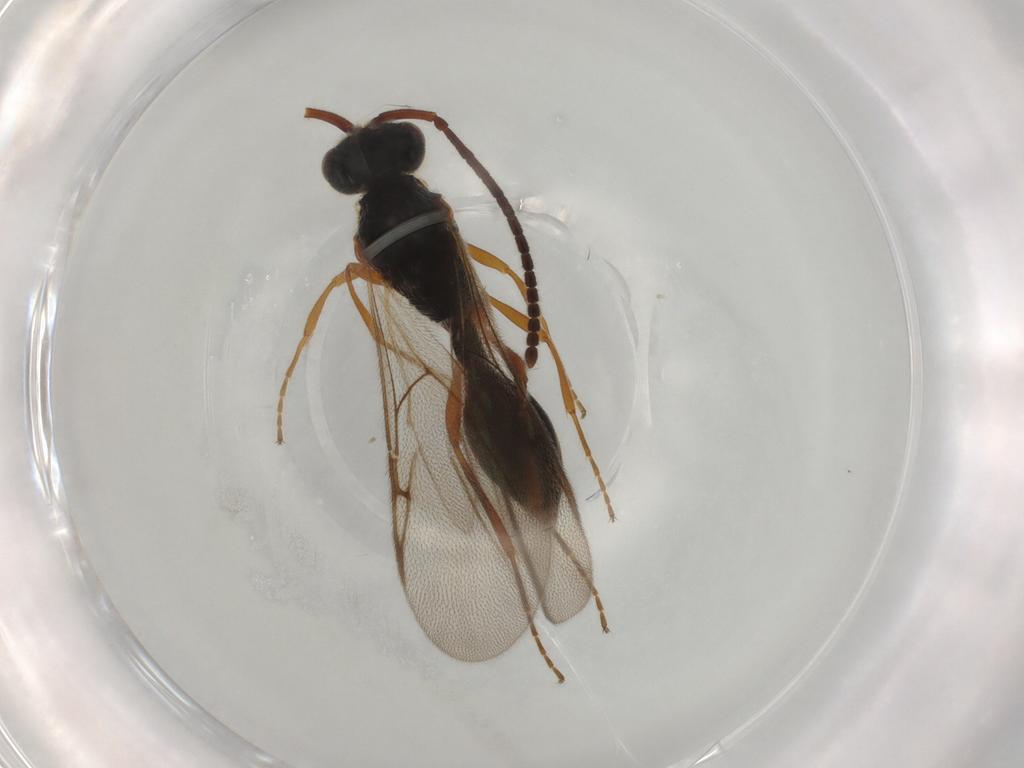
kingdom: Animalia
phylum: Arthropoda
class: Insecta
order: Hymenoptera
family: Diapriidae
